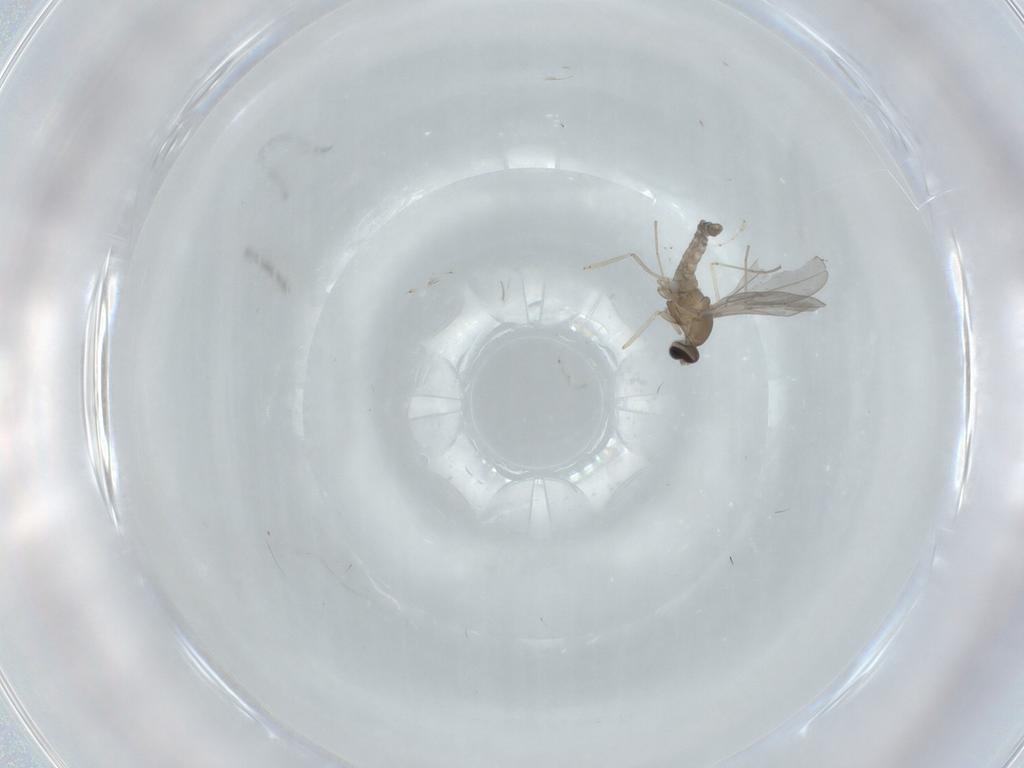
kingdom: Animalia
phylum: Arthropoda
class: Insecta
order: Diptera
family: Cecidomyiidae
